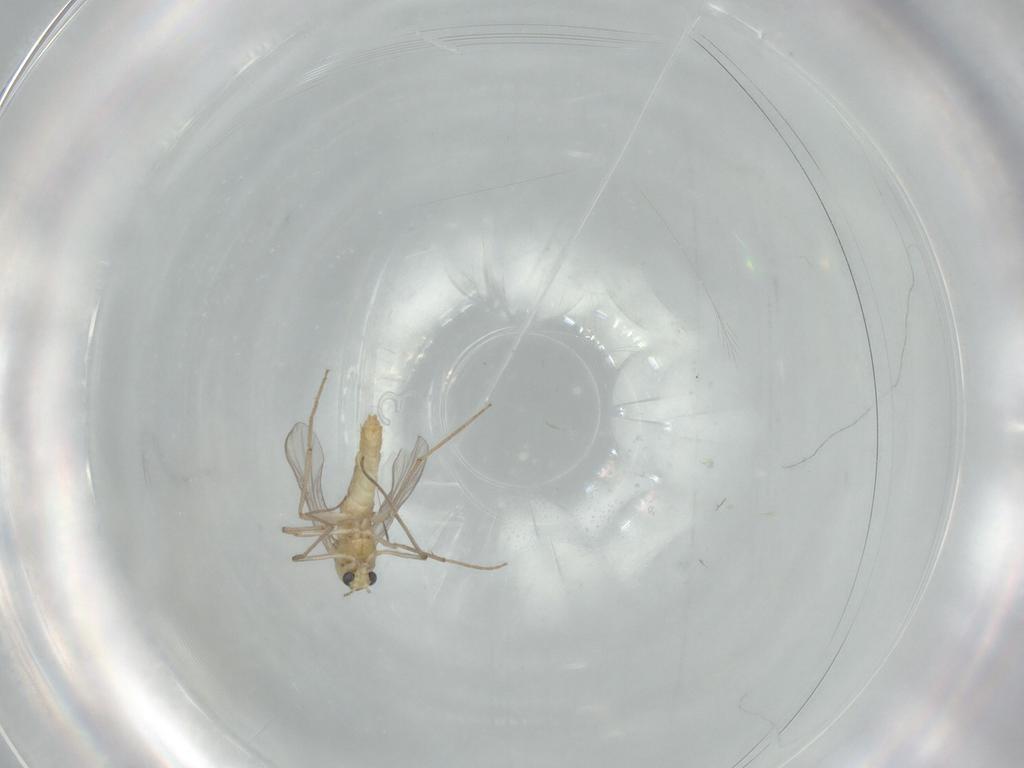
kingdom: Animalia
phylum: Arthropoda
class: Insecta
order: Diptera
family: Chironomidae
